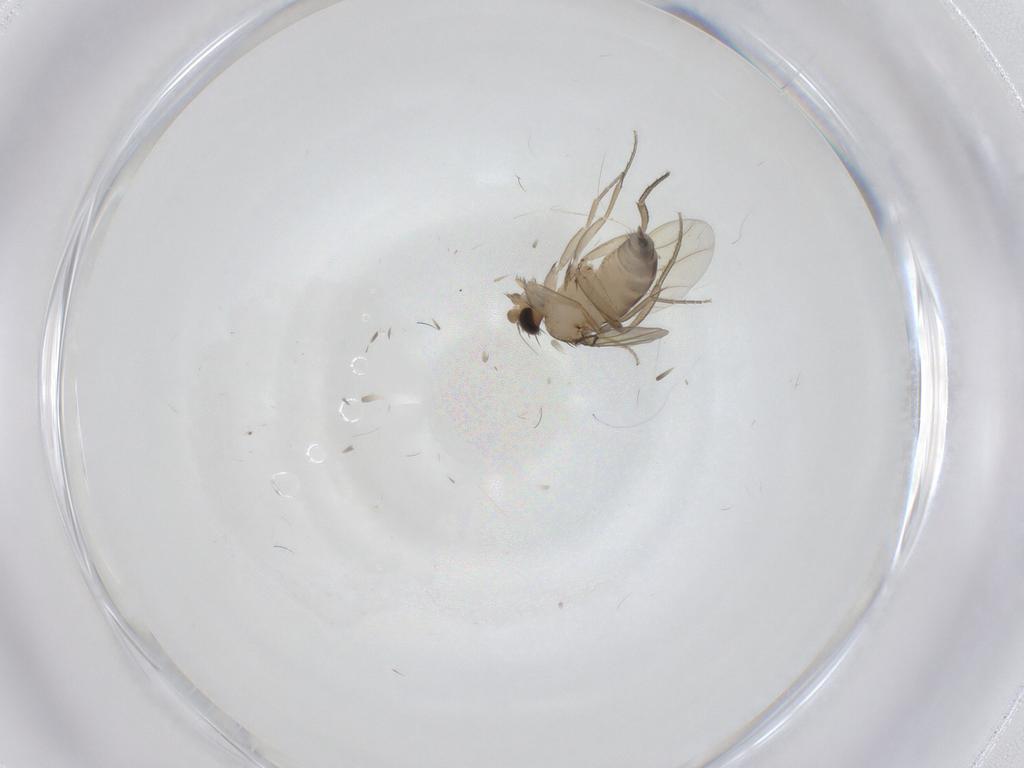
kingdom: Animalia
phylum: Arthropoda
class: Insecta
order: Diptera
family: Phoridae
